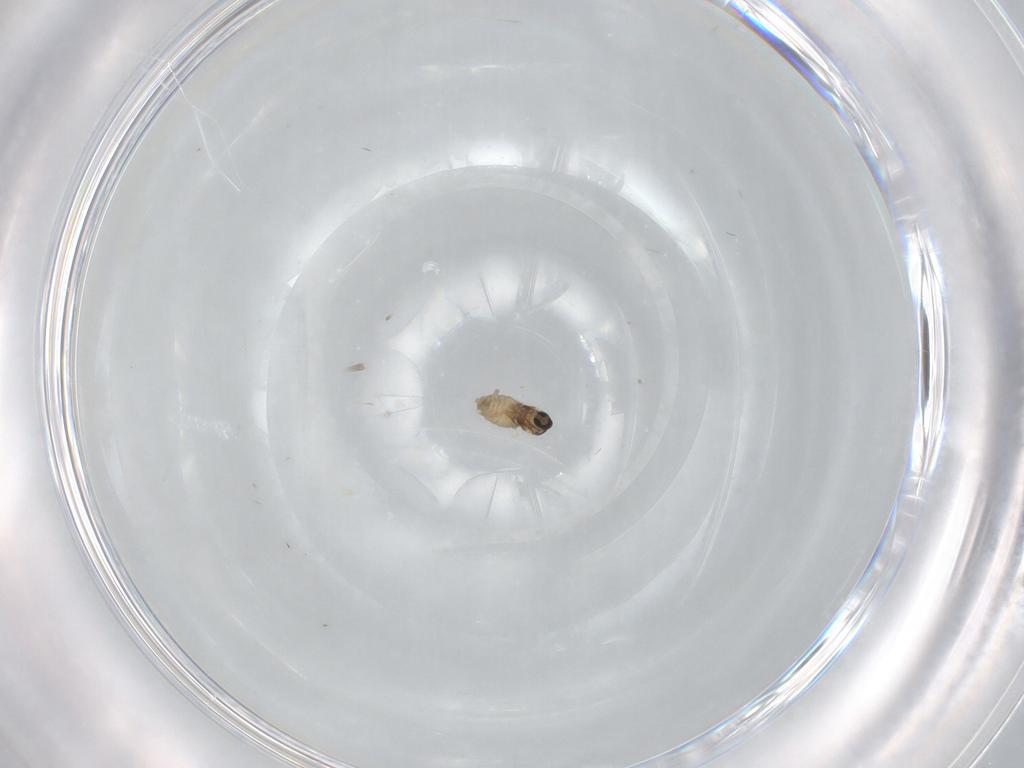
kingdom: Animalia
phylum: Arthropoda
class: Insecta
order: Diptera
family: Cecidomyiidae
